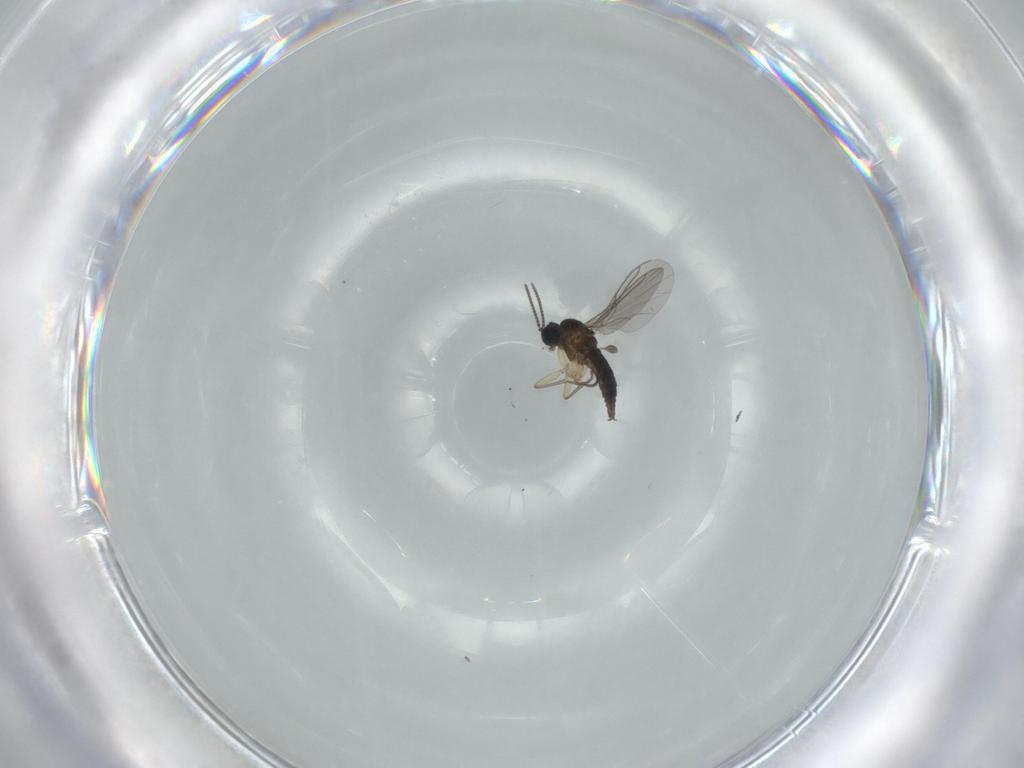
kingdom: Animalia
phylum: Arthropoda
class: Insecta
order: Diptera
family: Sciaridae
